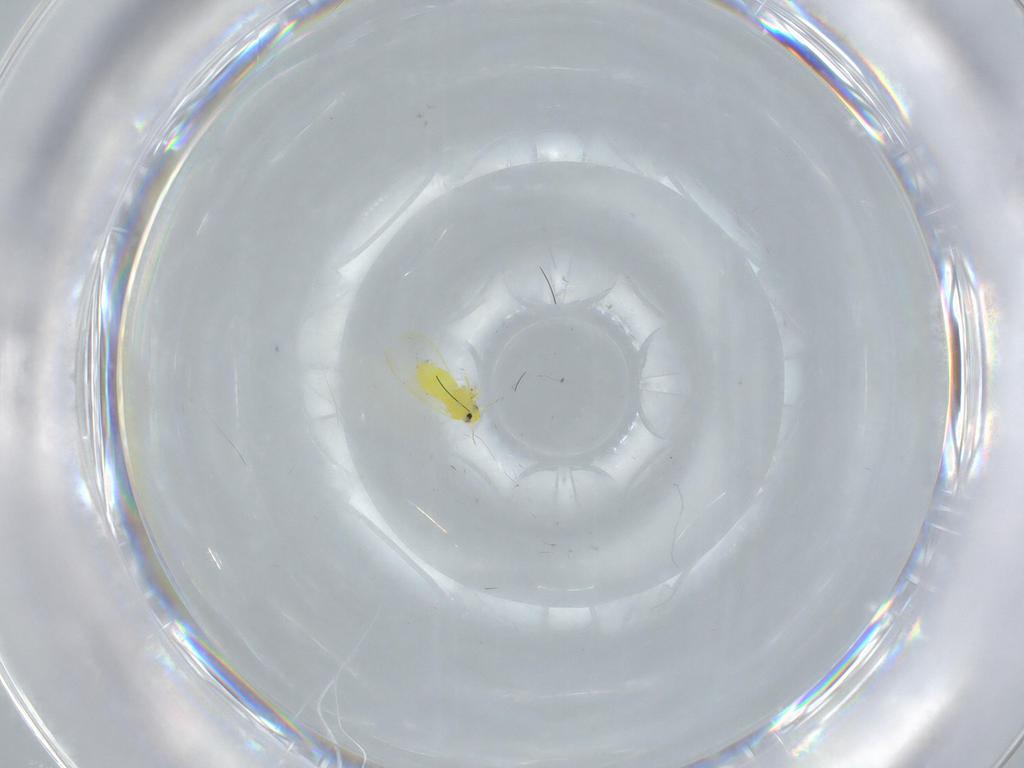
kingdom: Animalia
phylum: Arthropoda
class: Insecta
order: Hemiptera
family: Aleyrodidae
